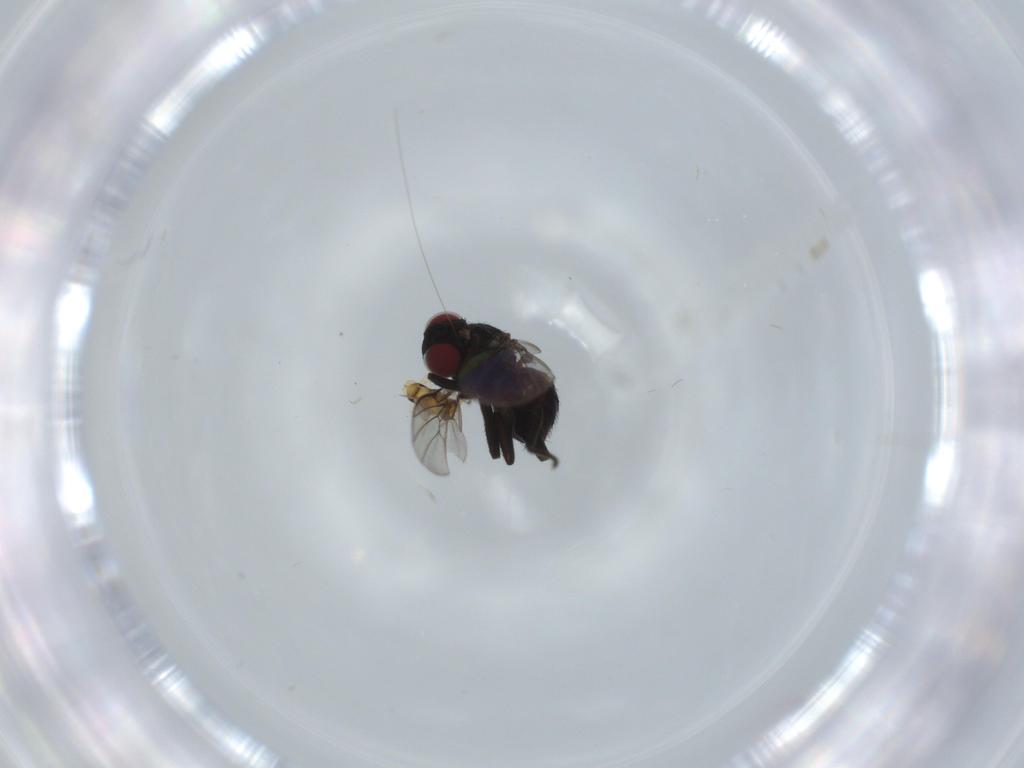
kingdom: Animalia
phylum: Arthropoda
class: Insecta
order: Diptera
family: Agromyzidae
